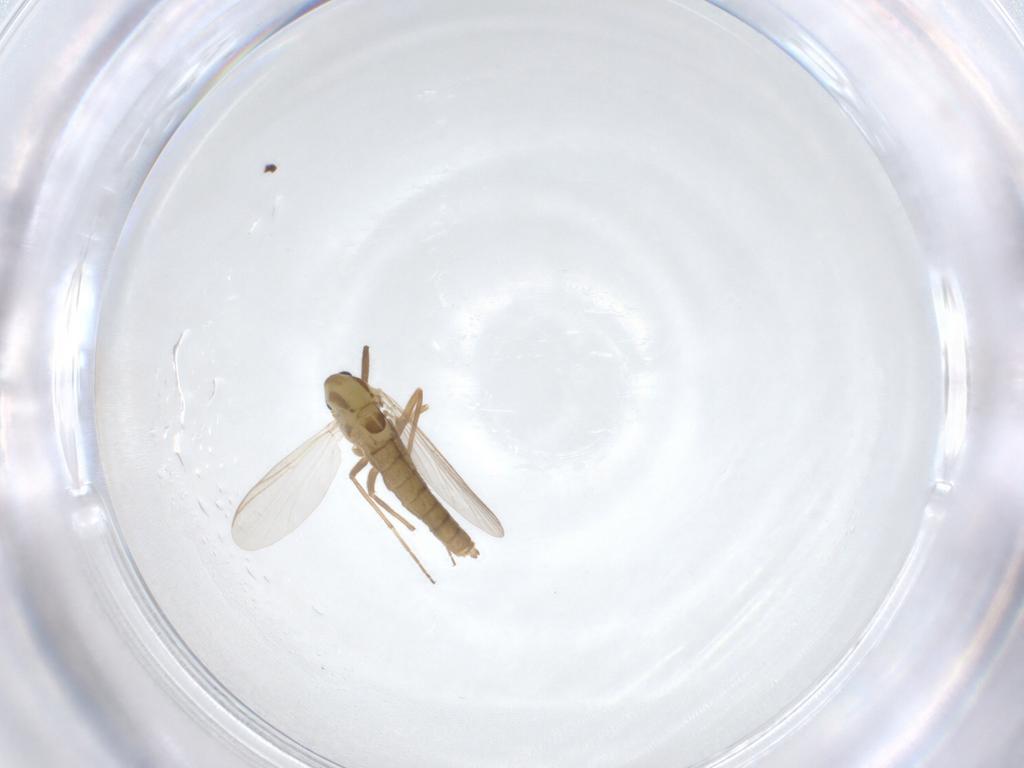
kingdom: Animalia
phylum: Arthropoda
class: Insecta
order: Diptera
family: Chironomidae
